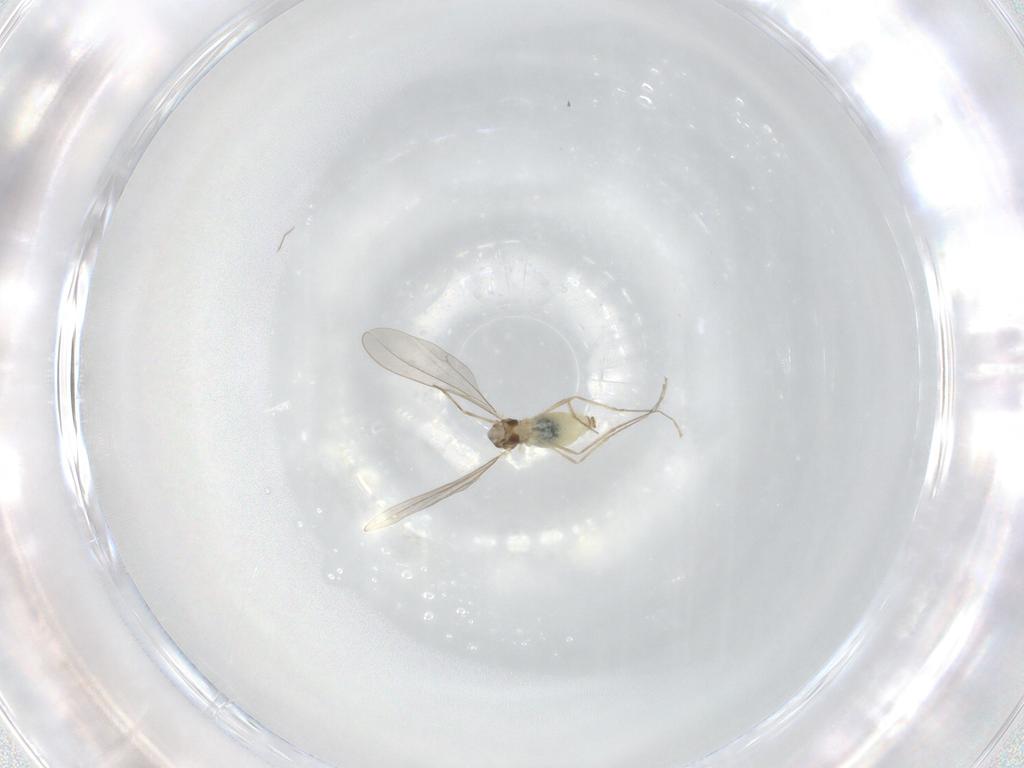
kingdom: Animalia
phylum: Arthropoda
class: Insecta
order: Diptera
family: Cecidomyiidae
